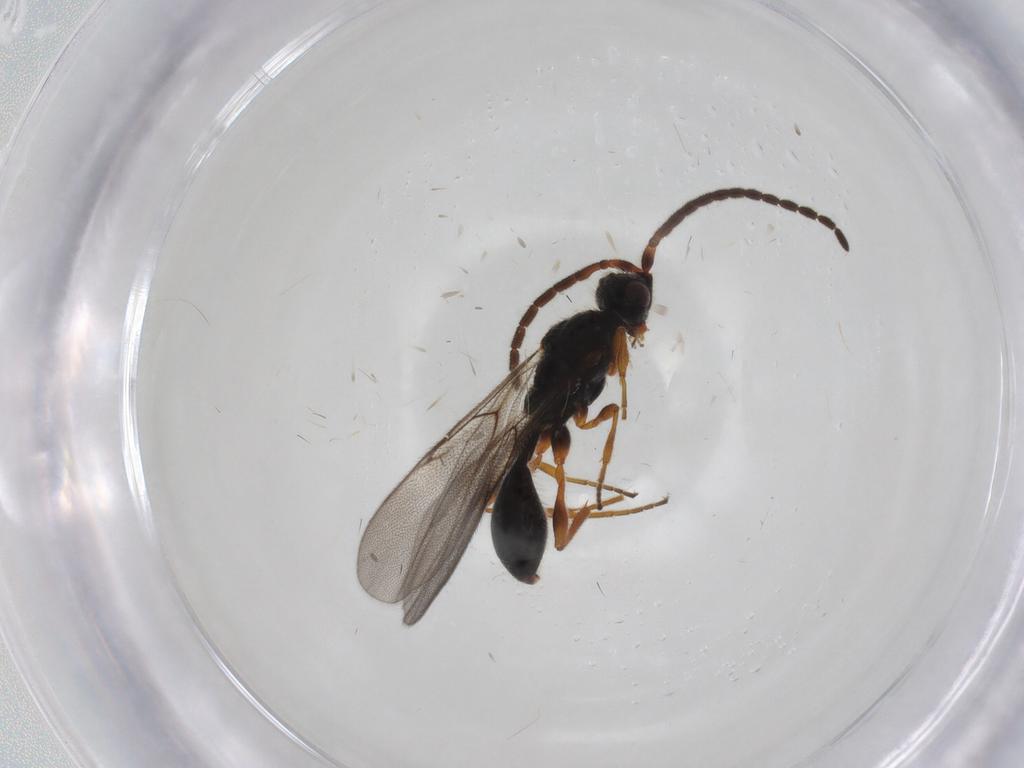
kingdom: Animalia
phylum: Arthropoda
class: Insecta
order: Hymenoptera
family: Diapriidae
